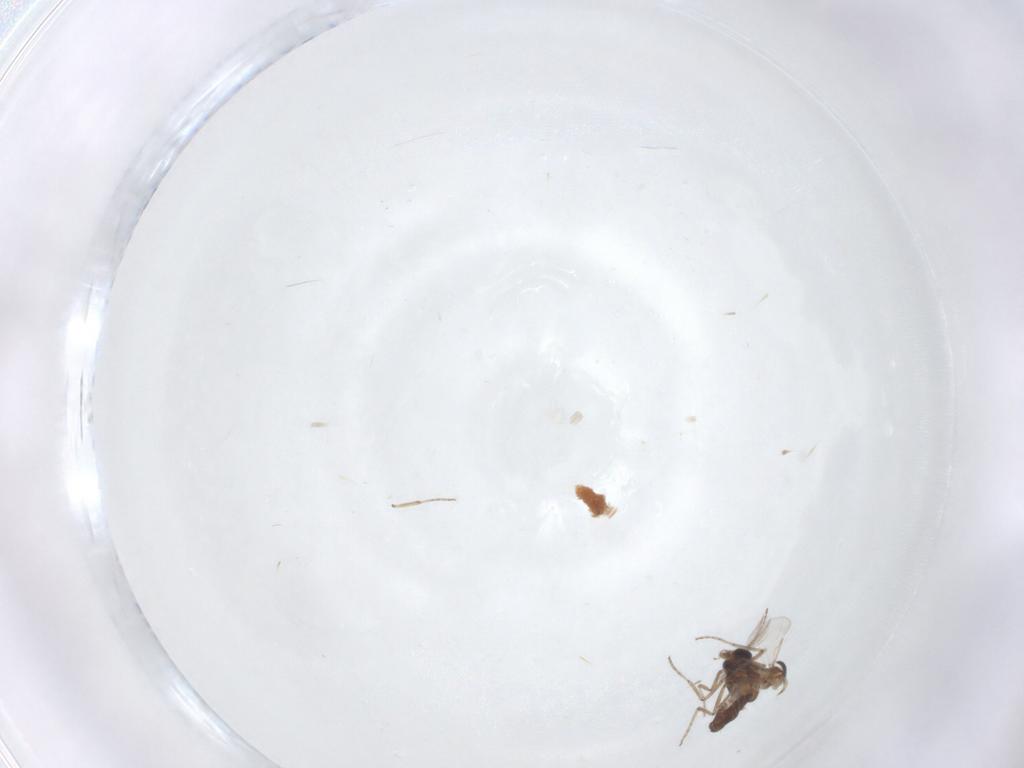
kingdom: Animalia
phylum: Arthropoda
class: Insecta
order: Diptera
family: Ceratopogonidae
